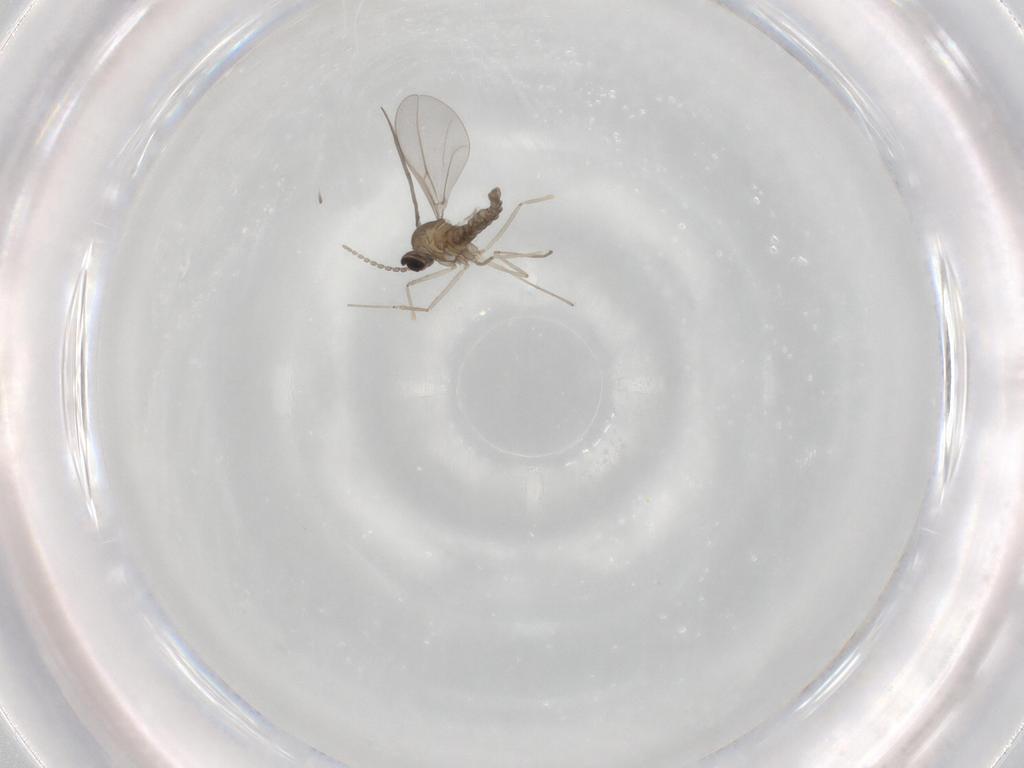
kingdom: Animalia
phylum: Arthropoda
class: Insecta
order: Diptera
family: Cecidomyiidae
